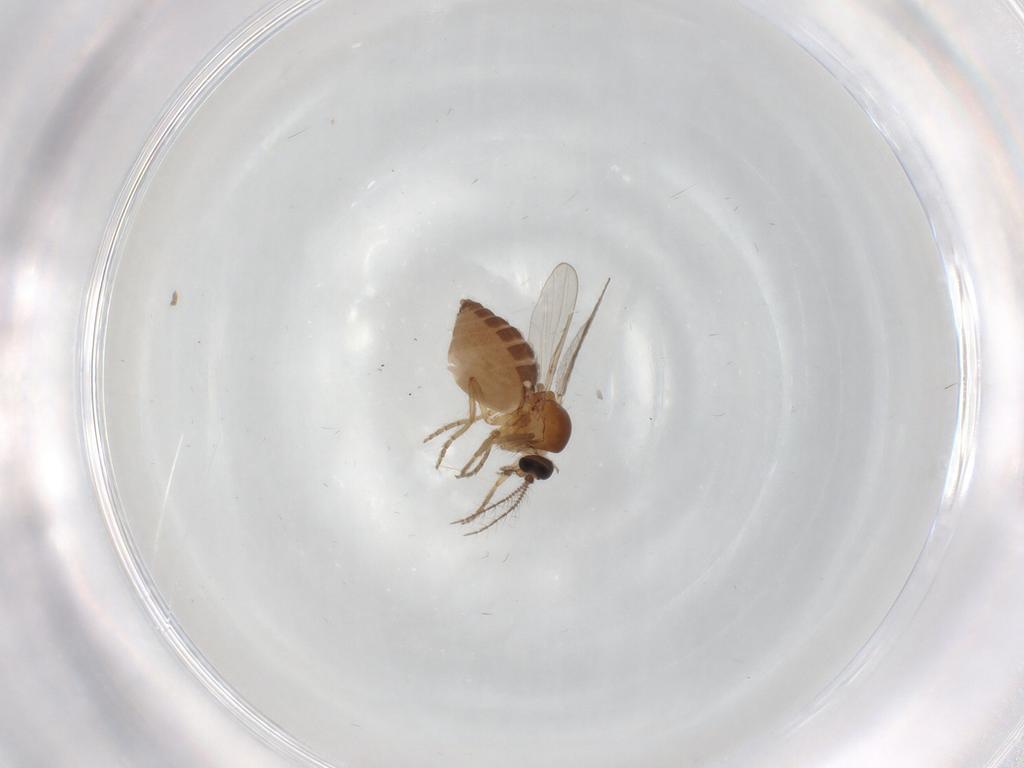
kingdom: Animalia
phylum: Arthropoda
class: Insecta
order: Diptera
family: Ceratopogonidae
